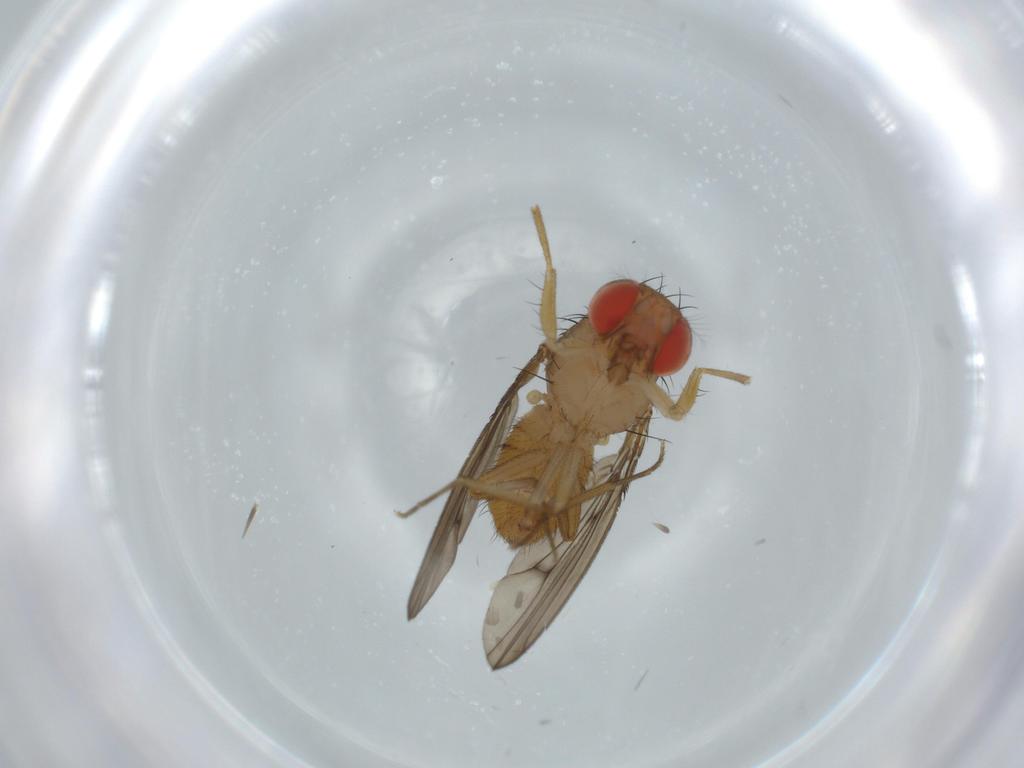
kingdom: Animalia
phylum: Arthropoda
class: Insecta
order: Diptera
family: Drosophilidae
